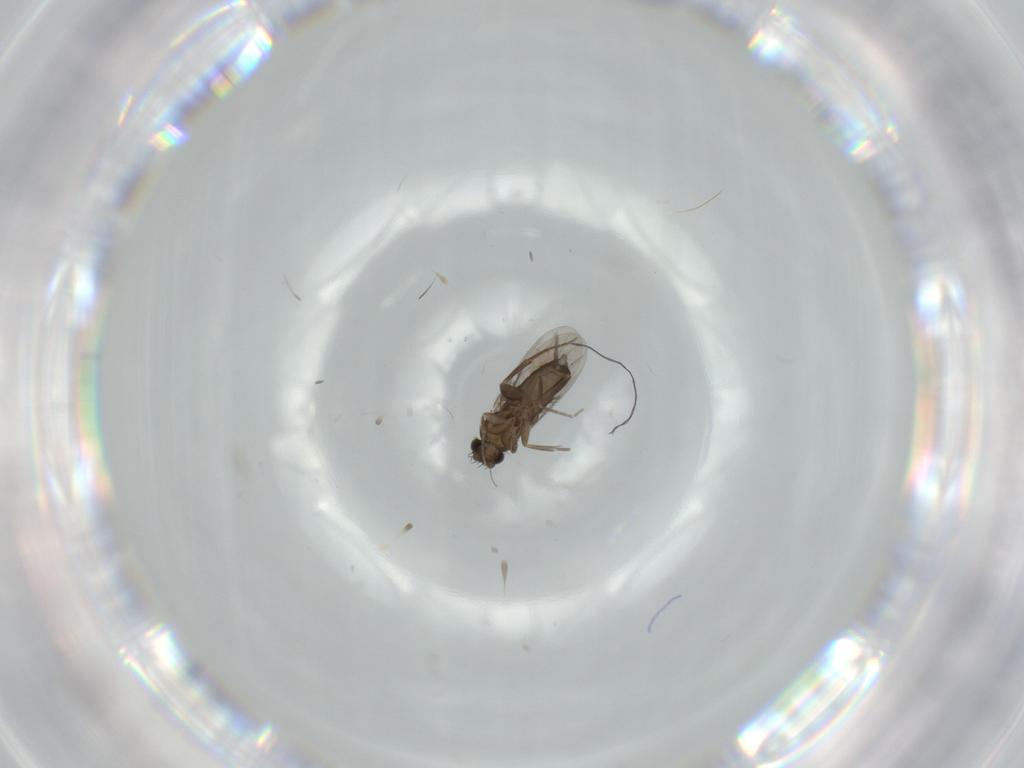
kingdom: Animalia
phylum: Arthropoda
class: Insecta
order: Diptera
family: Phoridae
